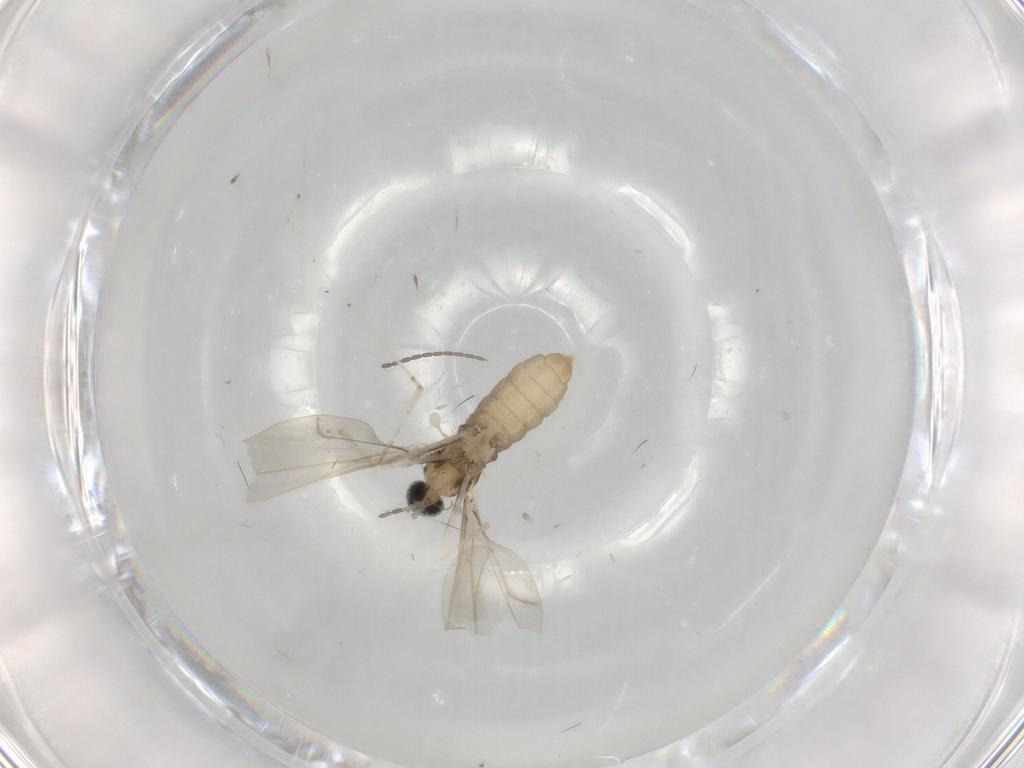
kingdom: Animalia
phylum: Arthropoda
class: Insecta
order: Diptera
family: Cecidomyiidae
